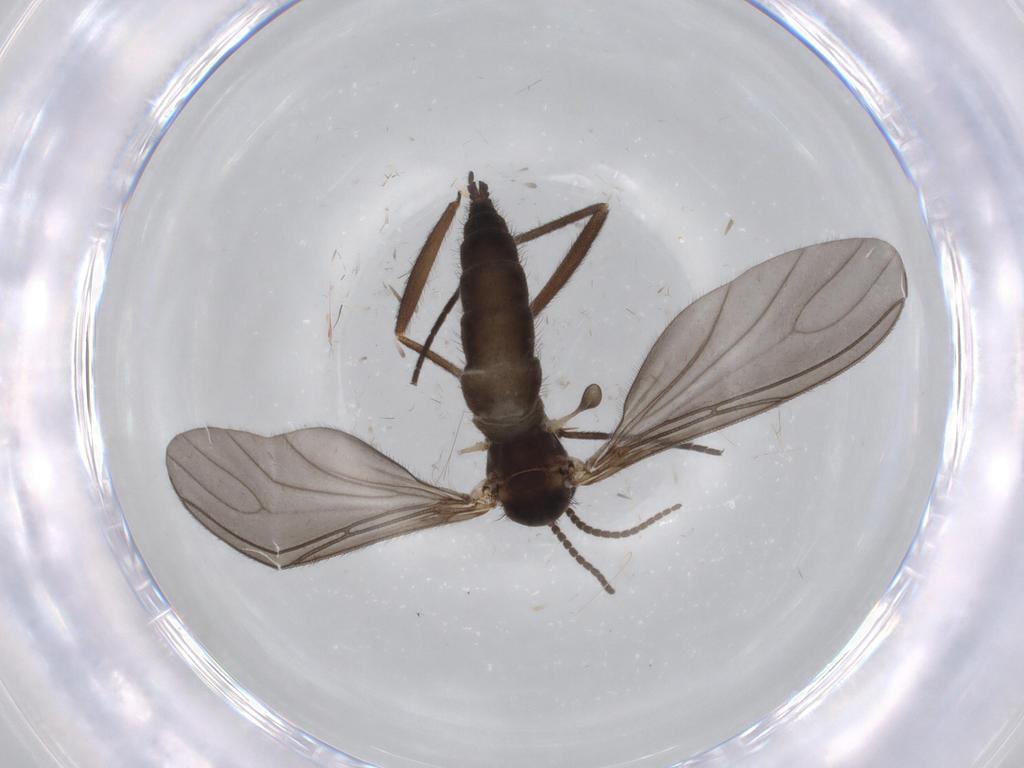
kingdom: Animalia
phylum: Arthropoda
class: Insecta
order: Diptera
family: Sciaridae
